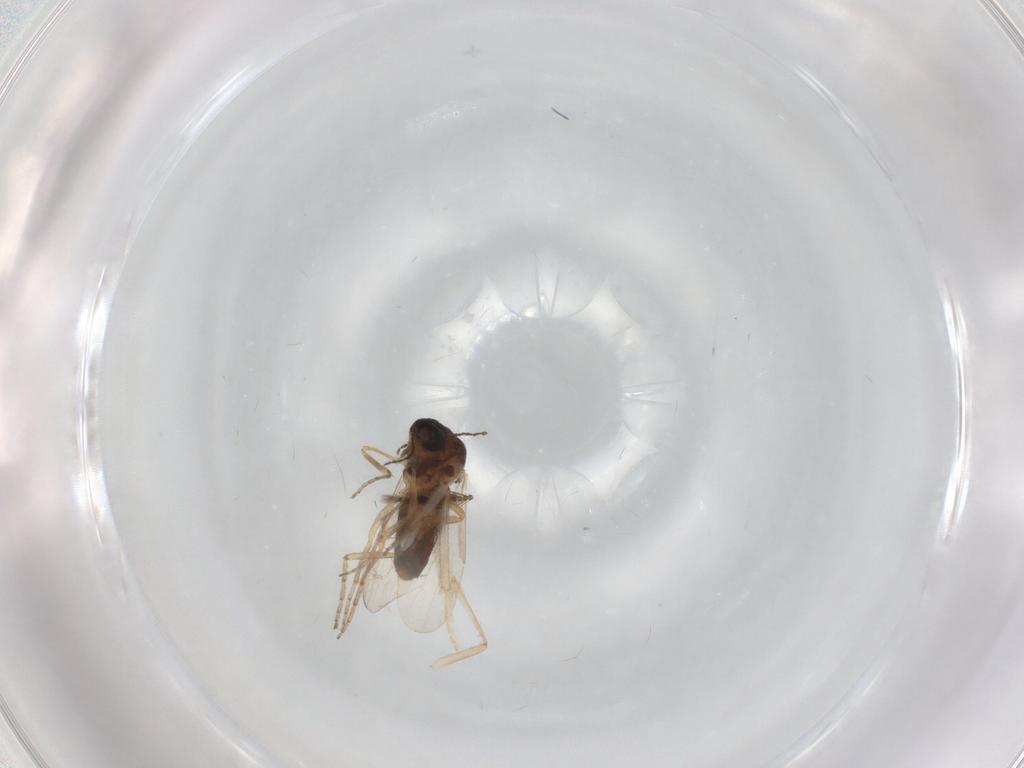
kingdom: Animalia
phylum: Arthropoda
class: Insecta
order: Diptera
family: Ceratopogonidae
